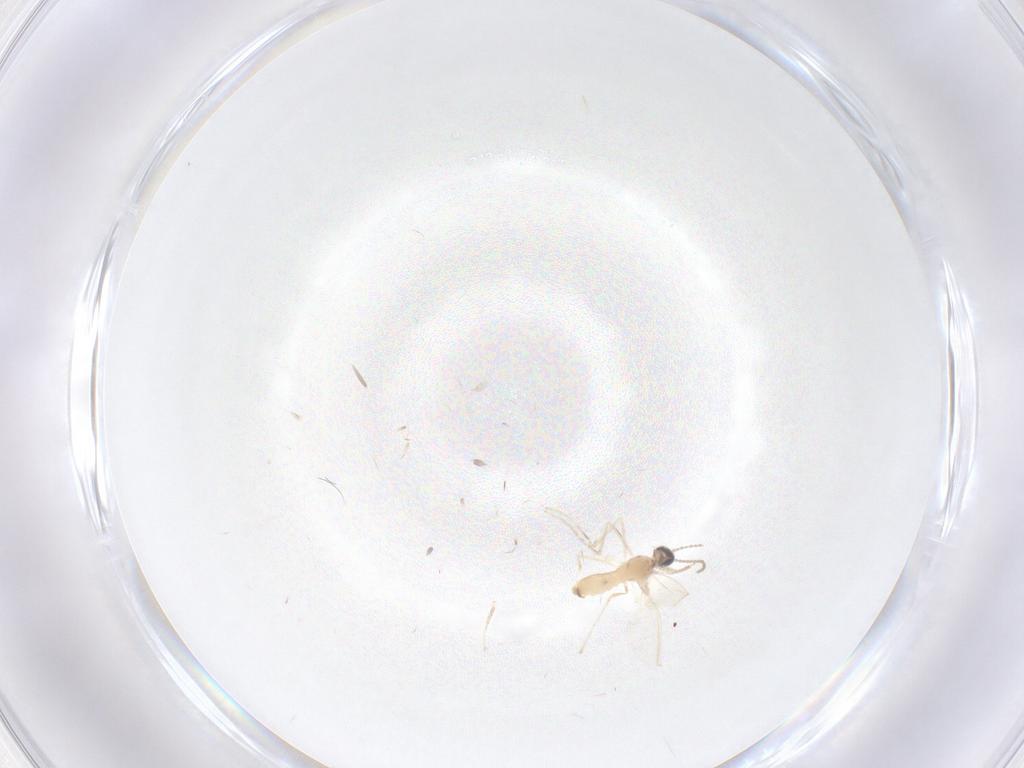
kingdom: Animalia
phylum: Arthropoda
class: Insecta
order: Diptera
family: Cecidomyiidae
